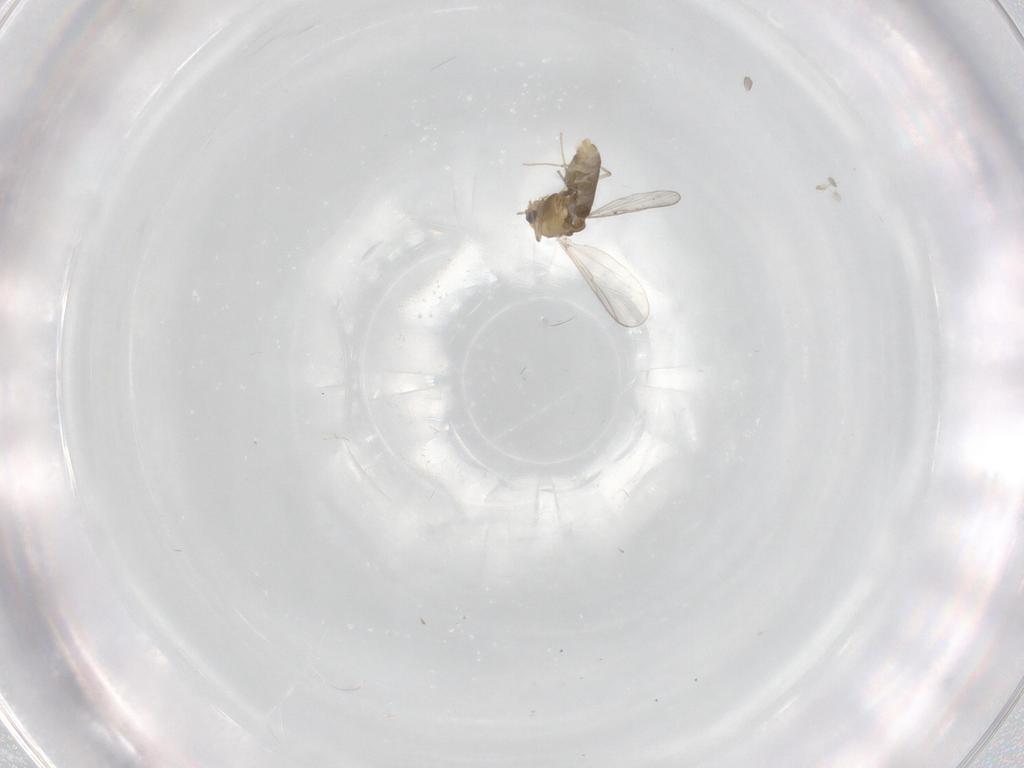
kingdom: Animalia
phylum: Arthropoda
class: Insecta
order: Diptera
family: Chironomidae
